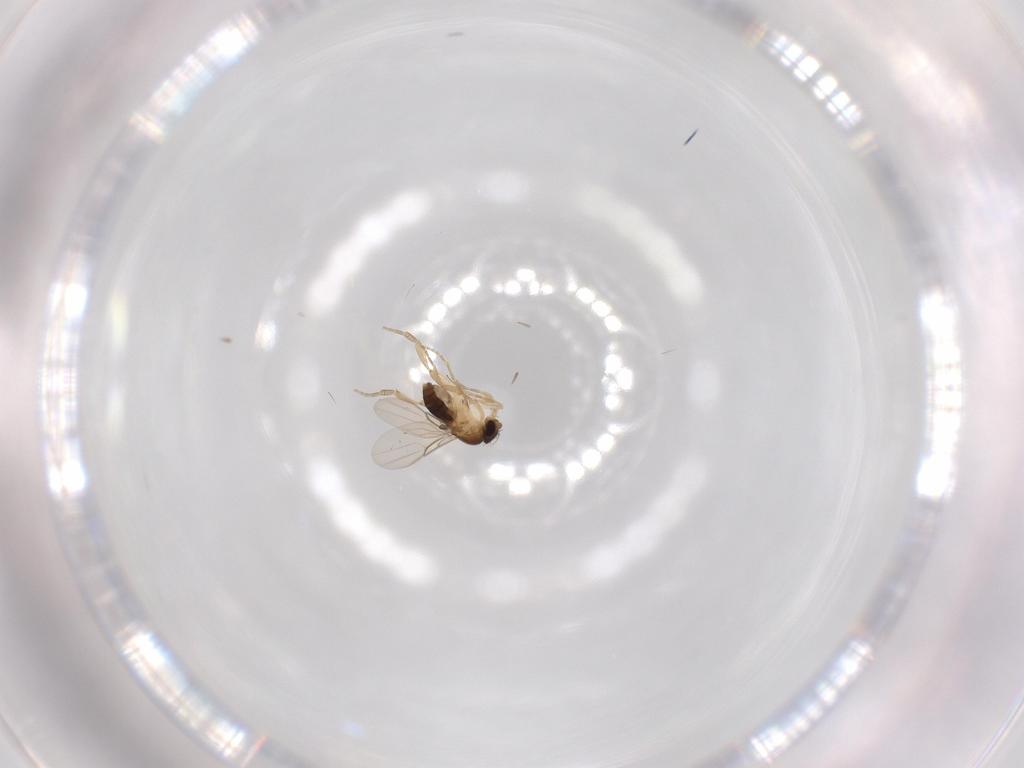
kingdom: Animalia
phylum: Arthropoda
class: Insecta
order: Diptera
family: Phoridae
